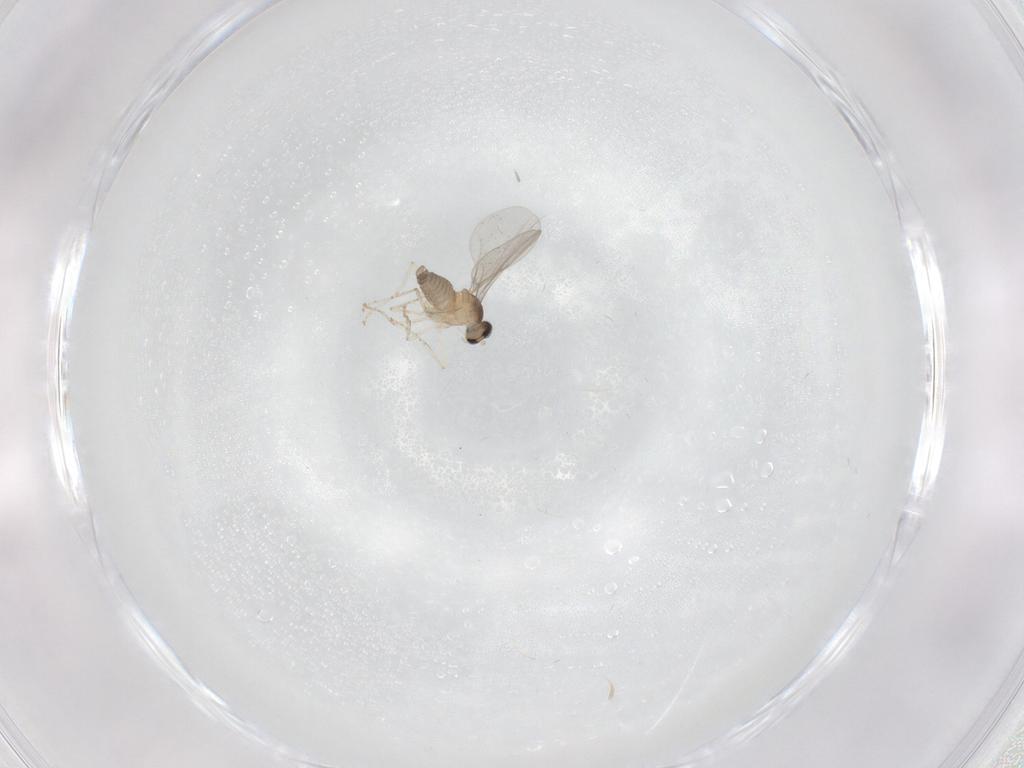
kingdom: Animalia
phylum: Arthropoda
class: Insecta
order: Diptera
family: Cecidomyiidae
